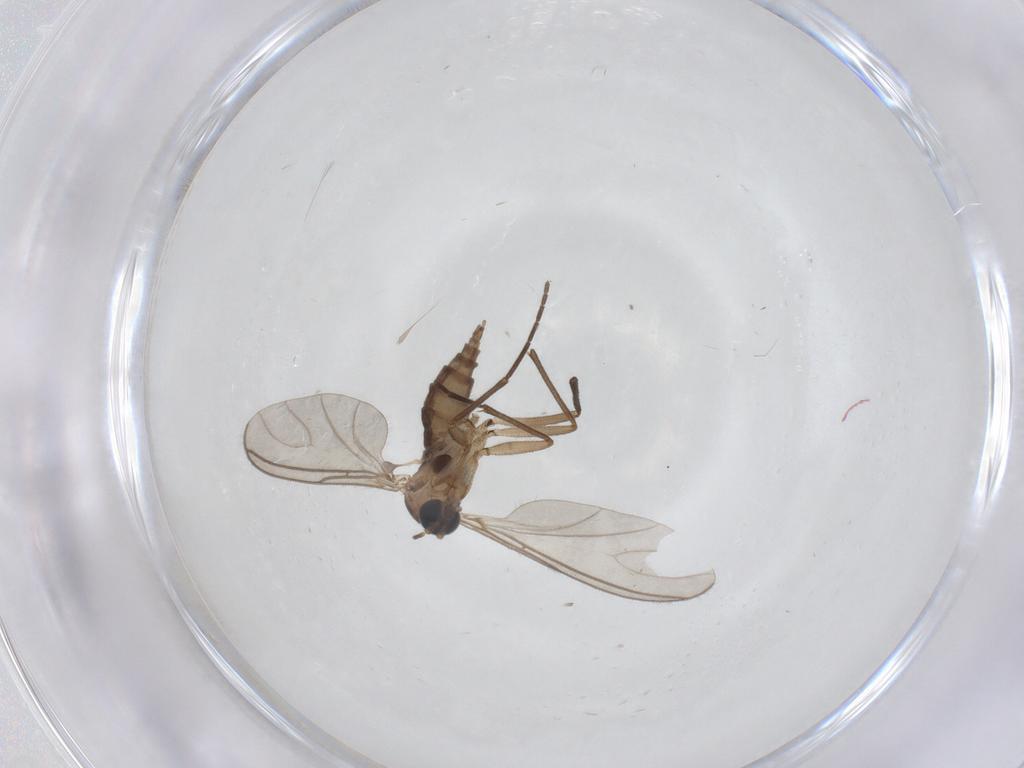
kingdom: Animalia
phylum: Arthropoda
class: Insecta
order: Diptera
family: Sciaridae
